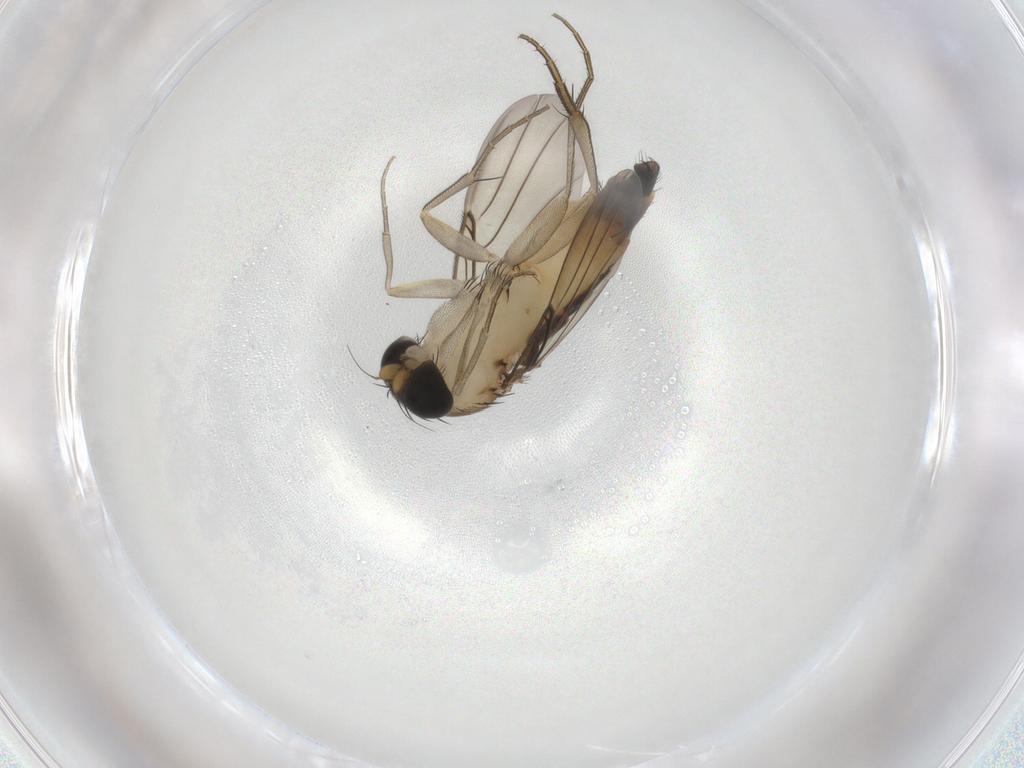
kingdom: Animalia
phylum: Arthropoda
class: Insecta
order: Diptera
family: Phoridae
